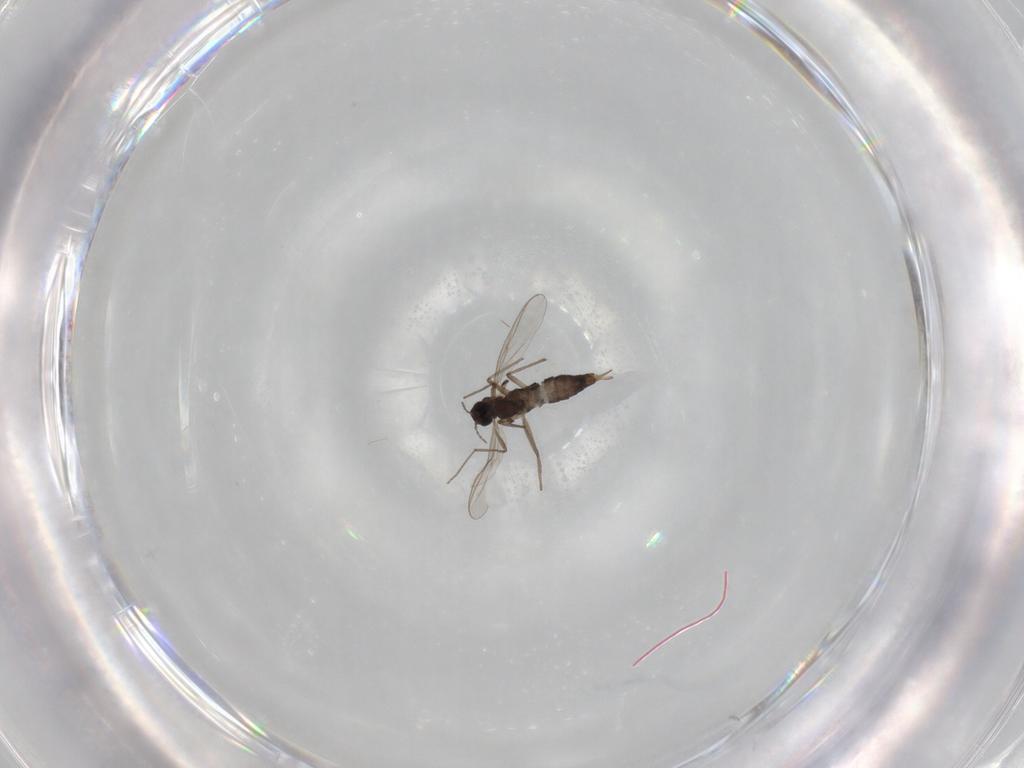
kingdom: Animalia
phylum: Arthropoda
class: Insecta
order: Diptera
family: Chironomidae
